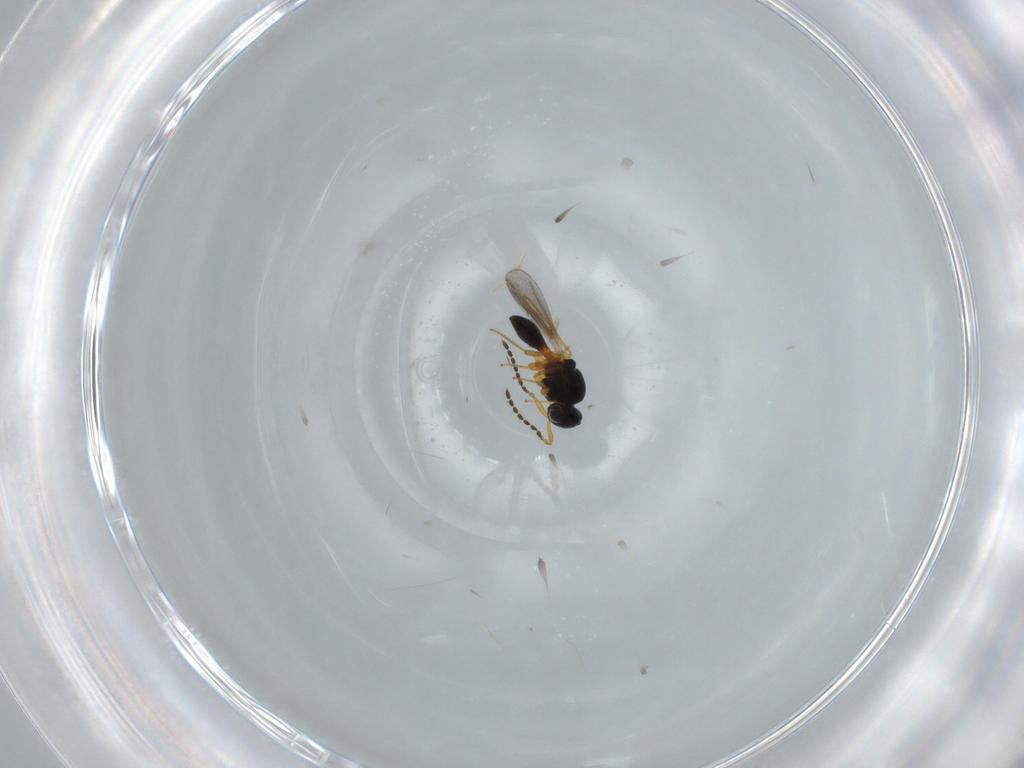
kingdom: Animalia
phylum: Arthropoda
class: Insecta
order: Hymenoptera
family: Platygastridae
